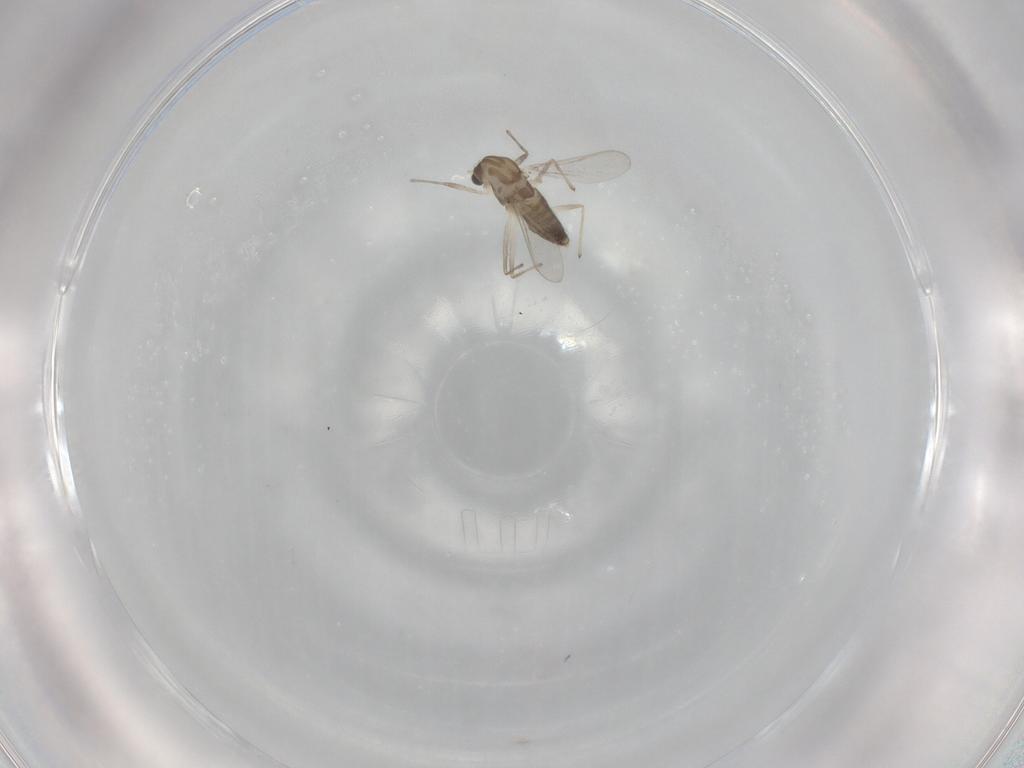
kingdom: Animalia
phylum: Arthropoda
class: Insecta
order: Diptera
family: Chironomidae
